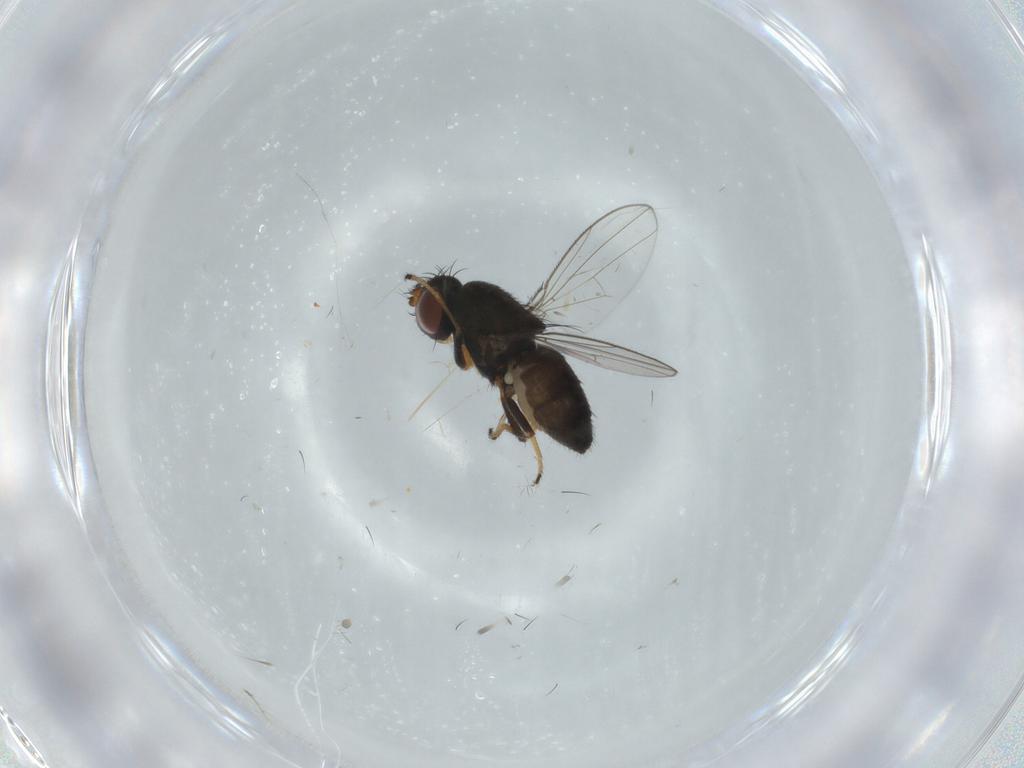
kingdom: Animalia
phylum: Arthropoda
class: Insecta
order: Diptera
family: Ephydridae
